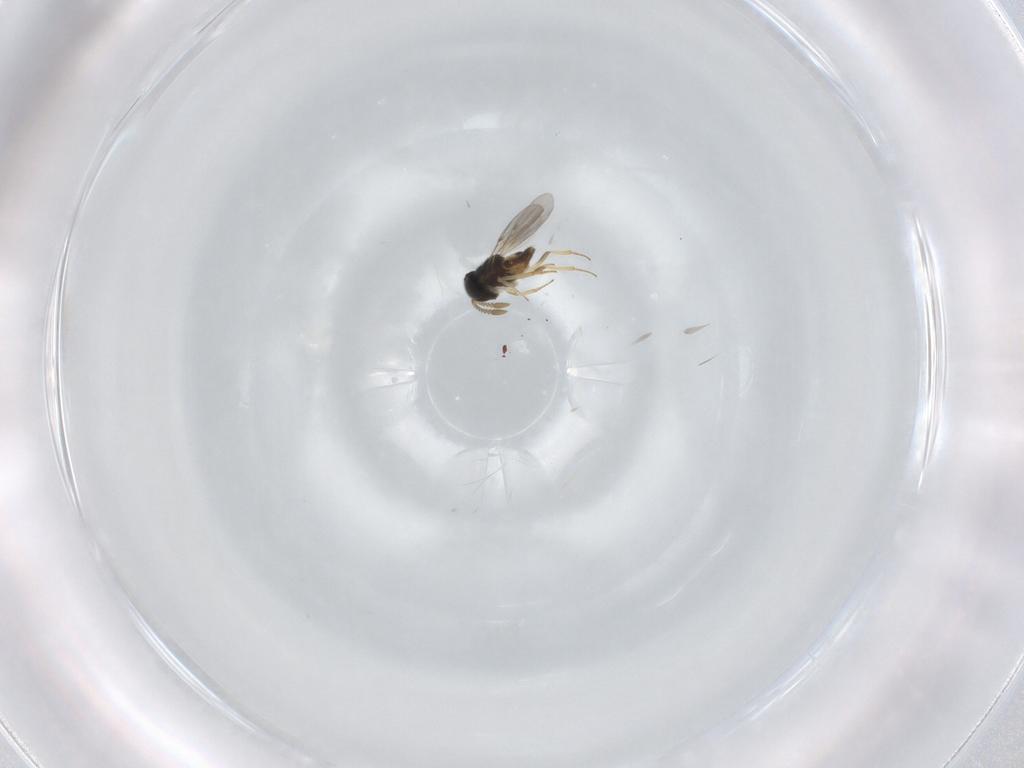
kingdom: Animalia
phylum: Arthropoda
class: Insecta
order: Hymenoptera
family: Encyrtidae
